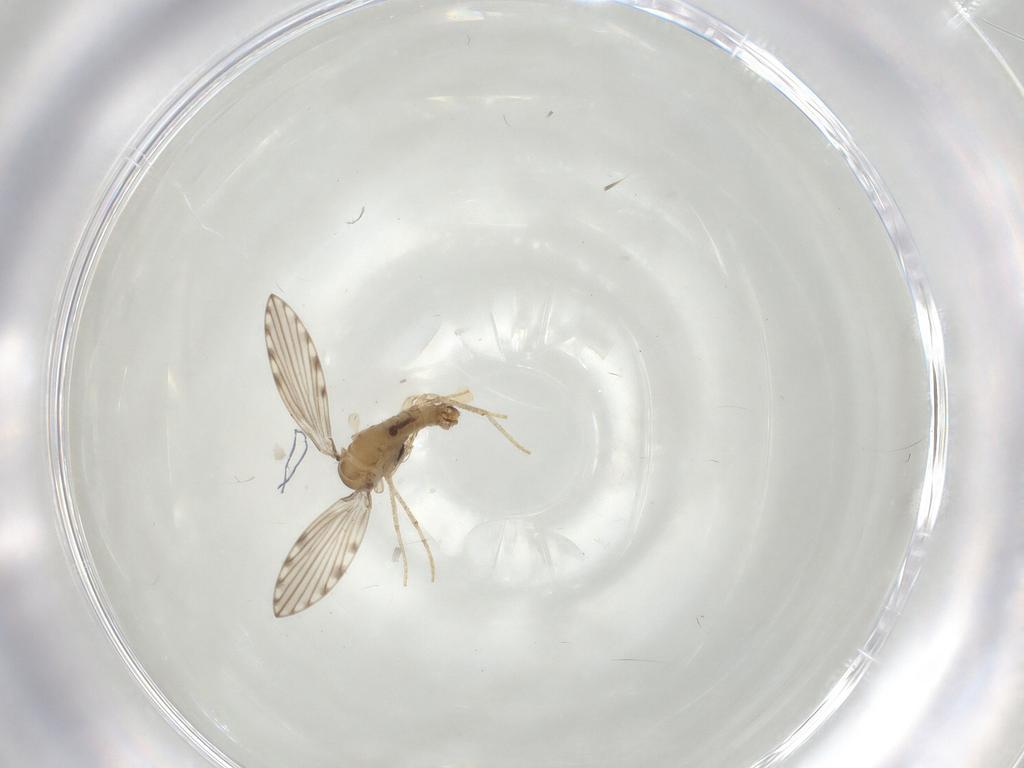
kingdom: Animalia
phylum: Arthropoda
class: Insecta
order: Diptera
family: Psychodidae
